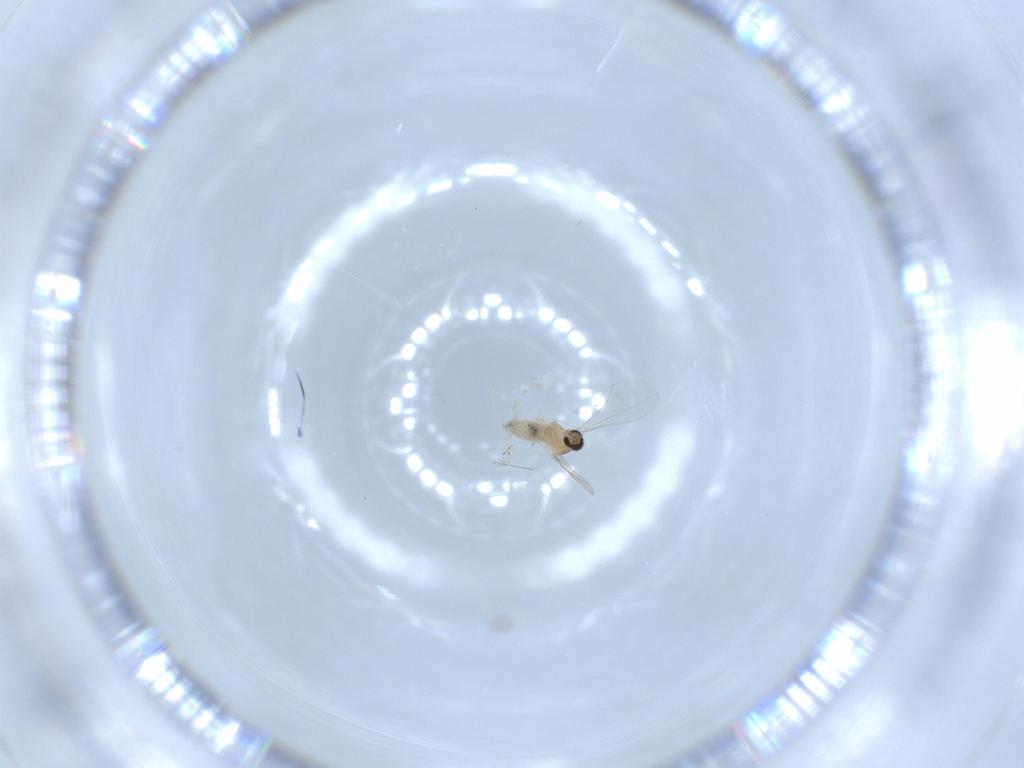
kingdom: Animalia
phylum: Arthropoda
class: Insecta
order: Diptera
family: Cecidomyiidae
